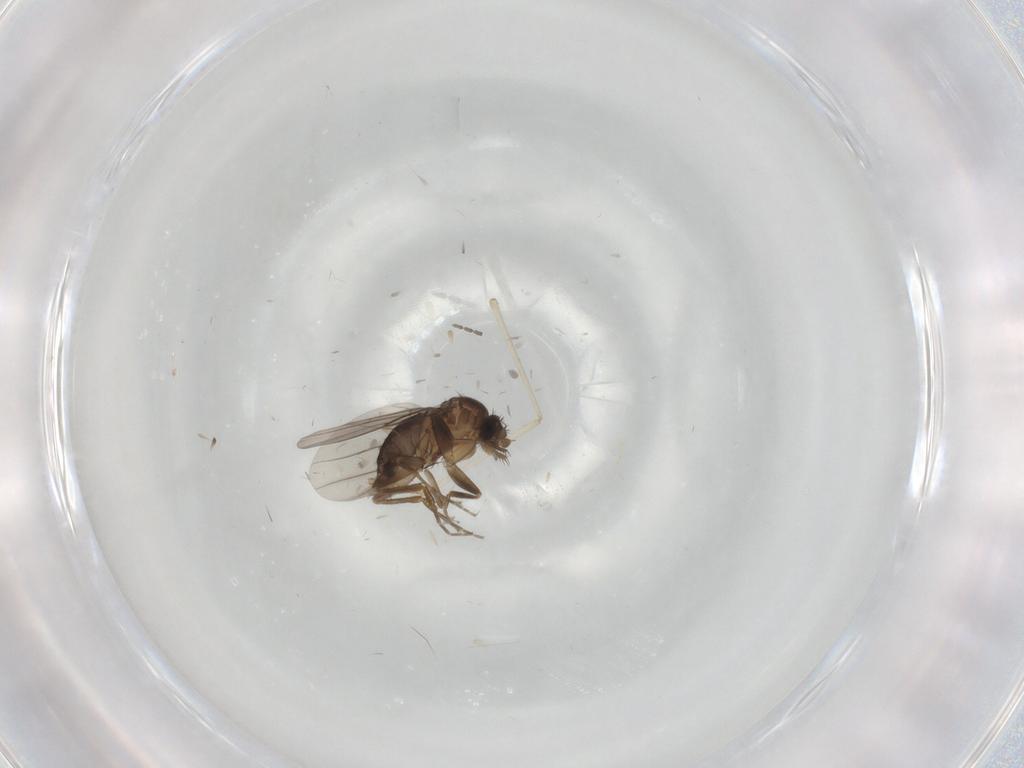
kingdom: Animalia
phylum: Arthropoda
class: Insecta
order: Diptera
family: Cecidomyiidae
